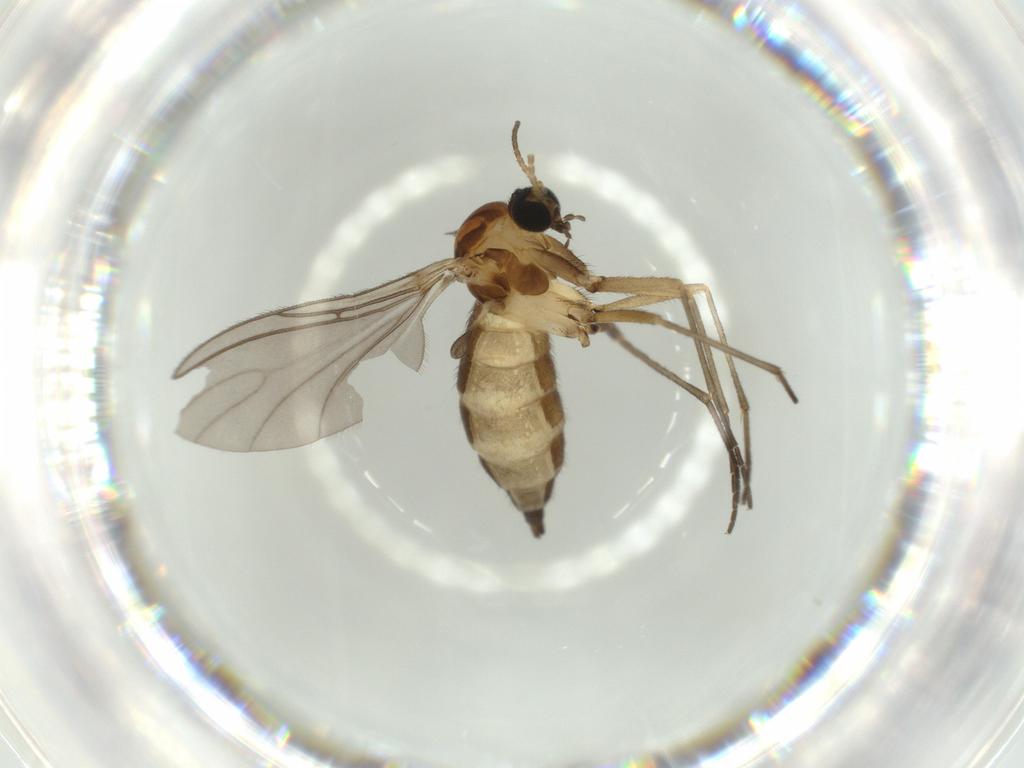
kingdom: Animalia
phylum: Arthropoda
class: Insecta
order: Diptera
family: Sciaridae
